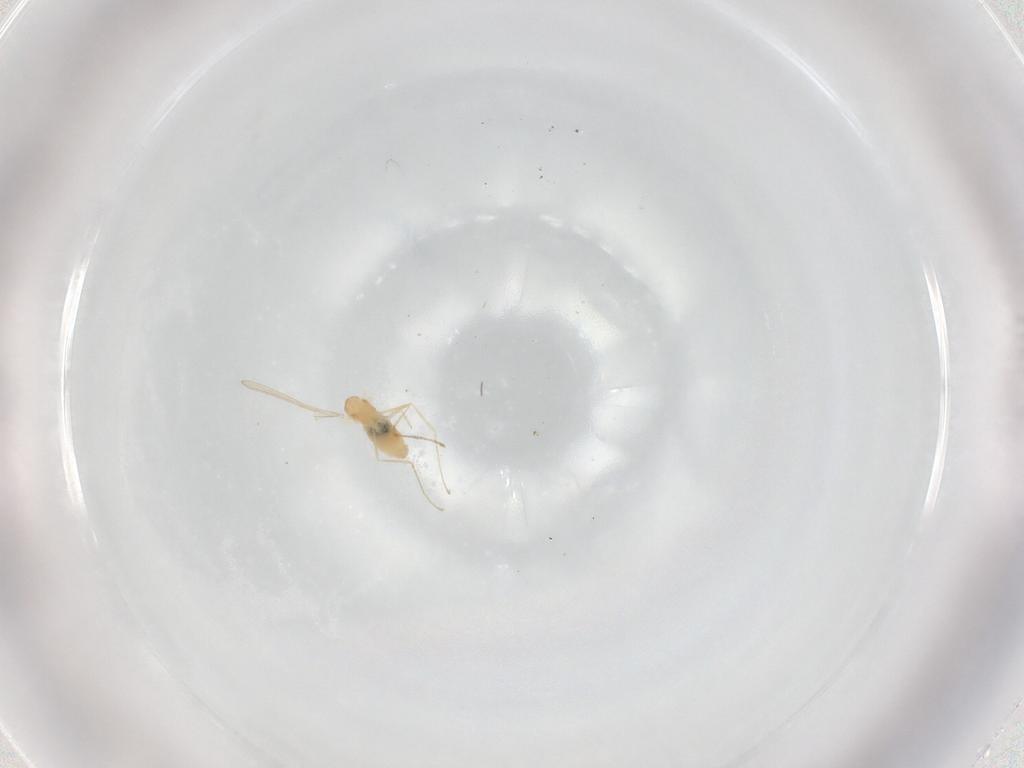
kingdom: Animalia
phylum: Arthropoda
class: Insecta
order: Diptera
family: Cecidomyiidae
